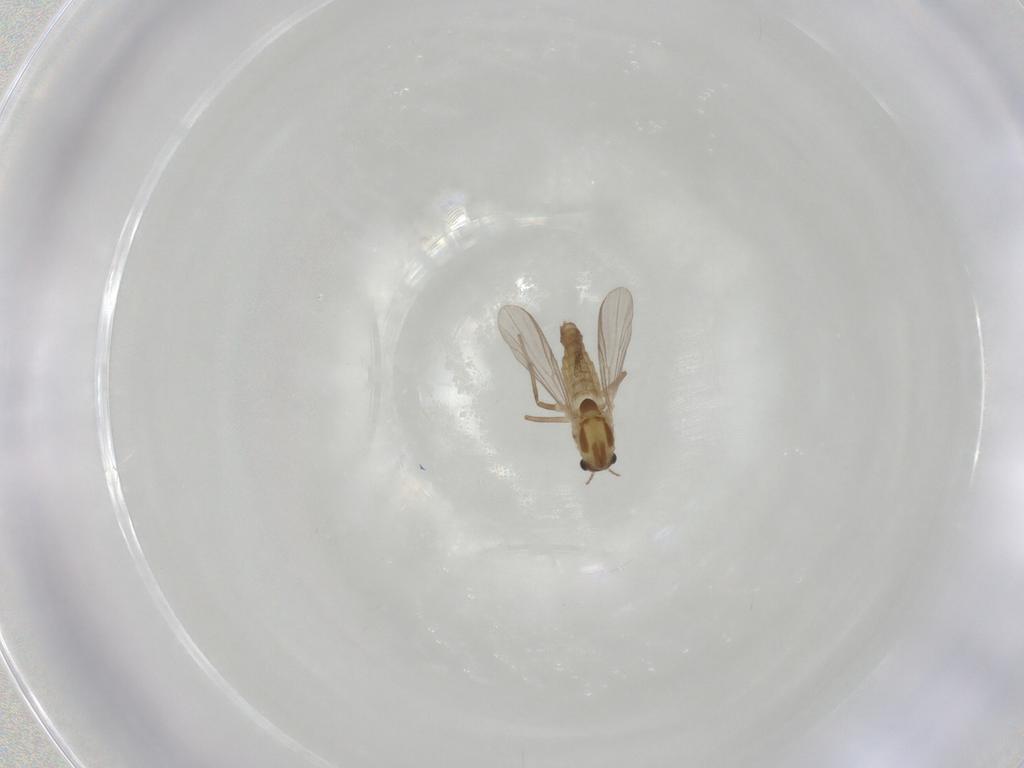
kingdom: Animalia
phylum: Arthropoda
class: Insecta
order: Diptera
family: Chironomidae
